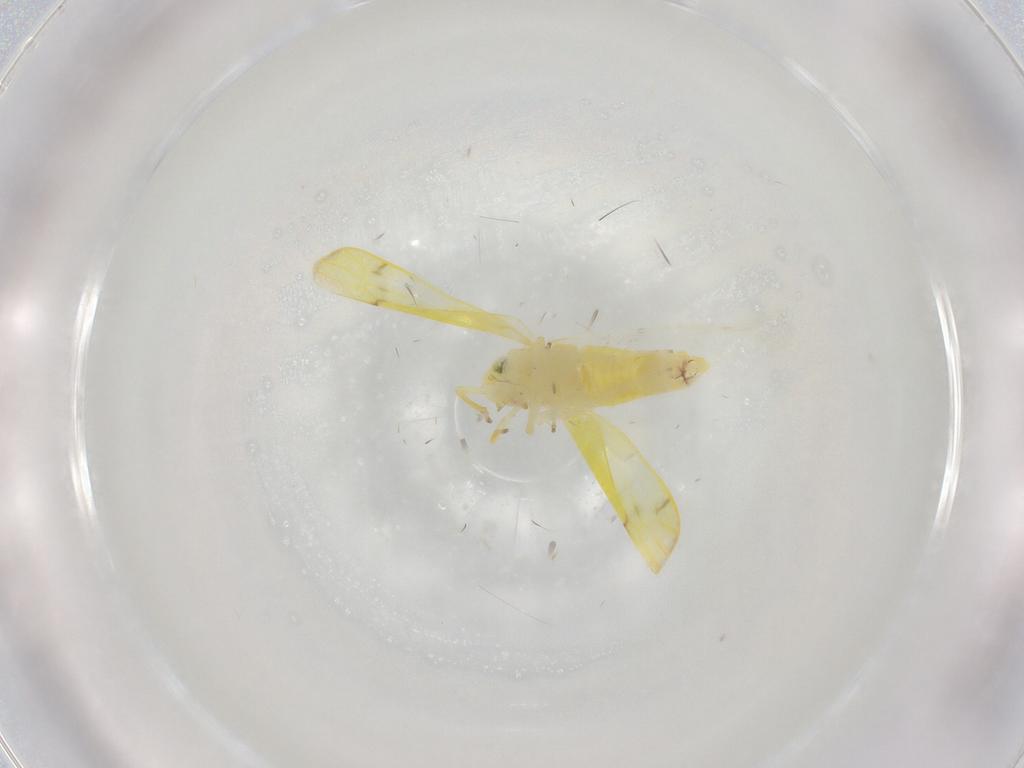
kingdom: Animalia
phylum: Arthropoda
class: Insecta
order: Hemiptera
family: Cicadellidae
